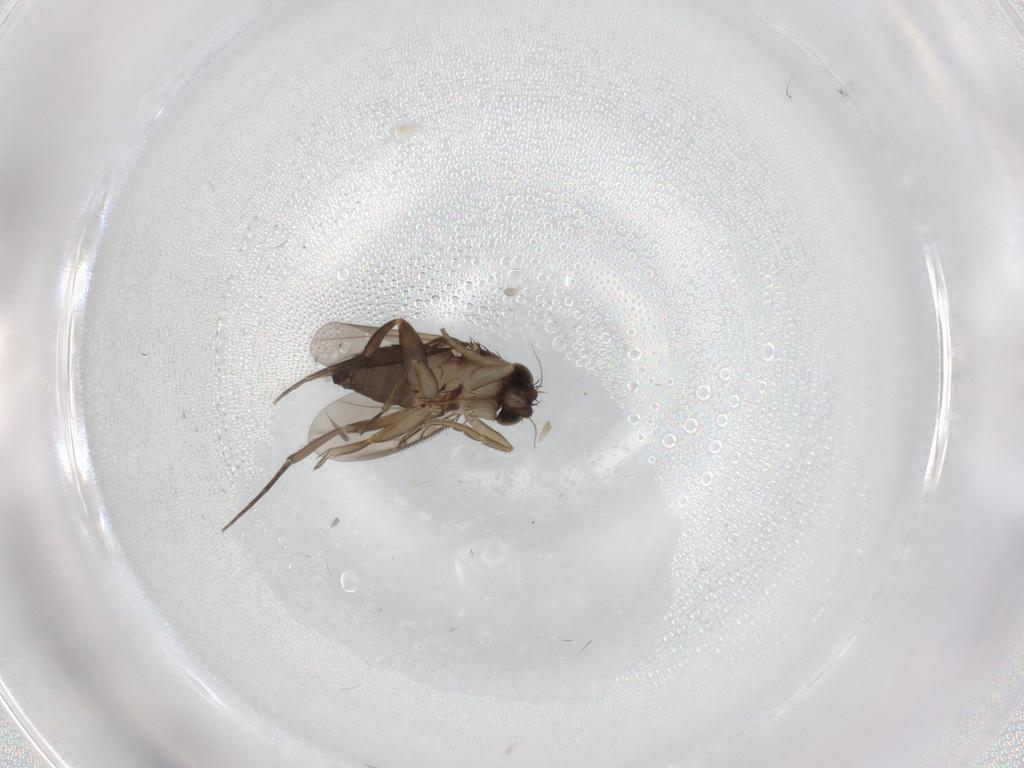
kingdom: Animalia
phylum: Arthropoda
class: Insecta
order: Diptera
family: Phoridae
